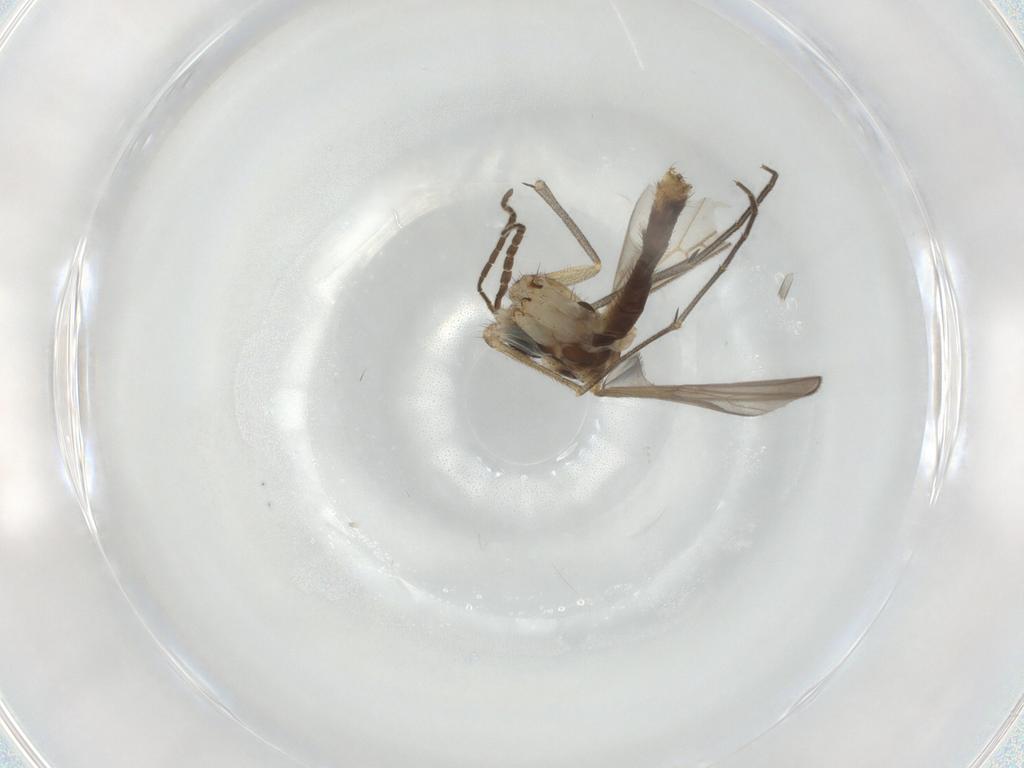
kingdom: Animalia
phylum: Arthropoda
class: Insecta
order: Diptera
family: Mycetophilidae
